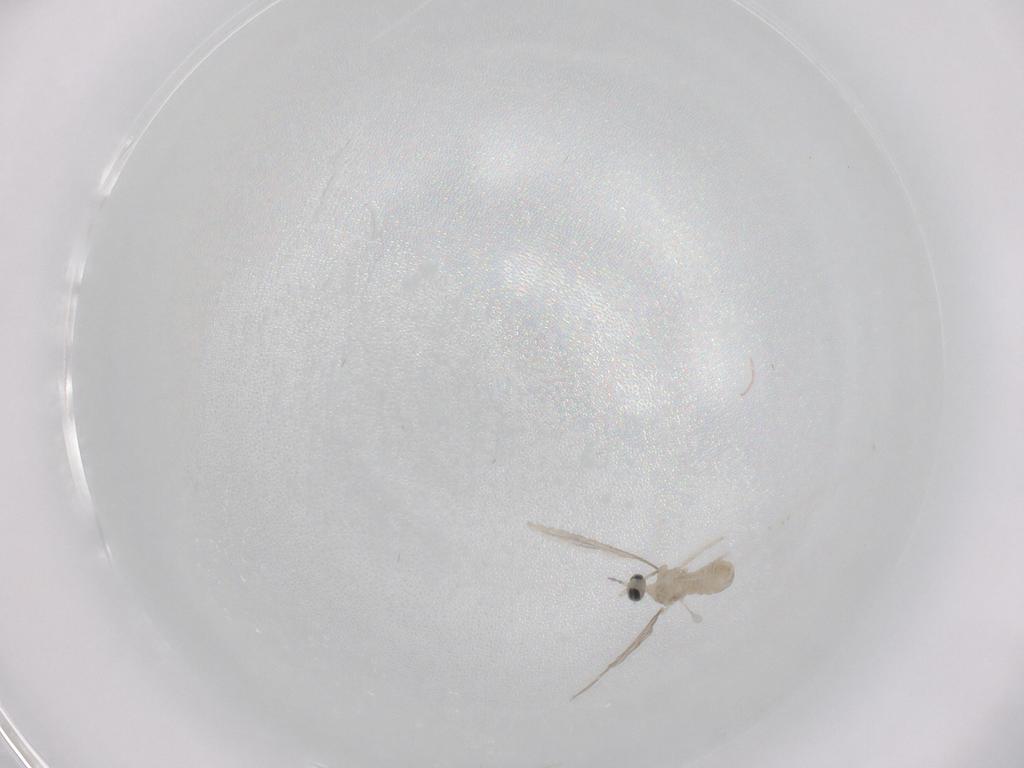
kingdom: Animalia
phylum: Arthropoda
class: Insecta
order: Diptera
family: Cecidomyiidae
